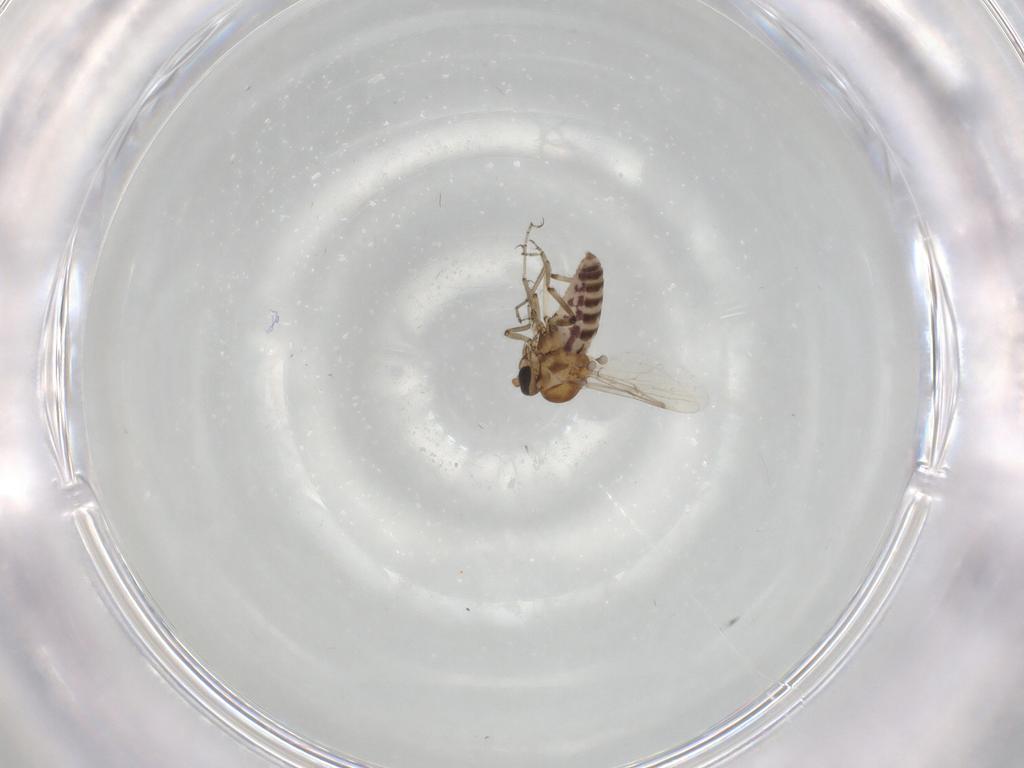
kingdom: Animalia
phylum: Arthropoda
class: Insecta
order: Diptera
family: Ceratopogonidae
